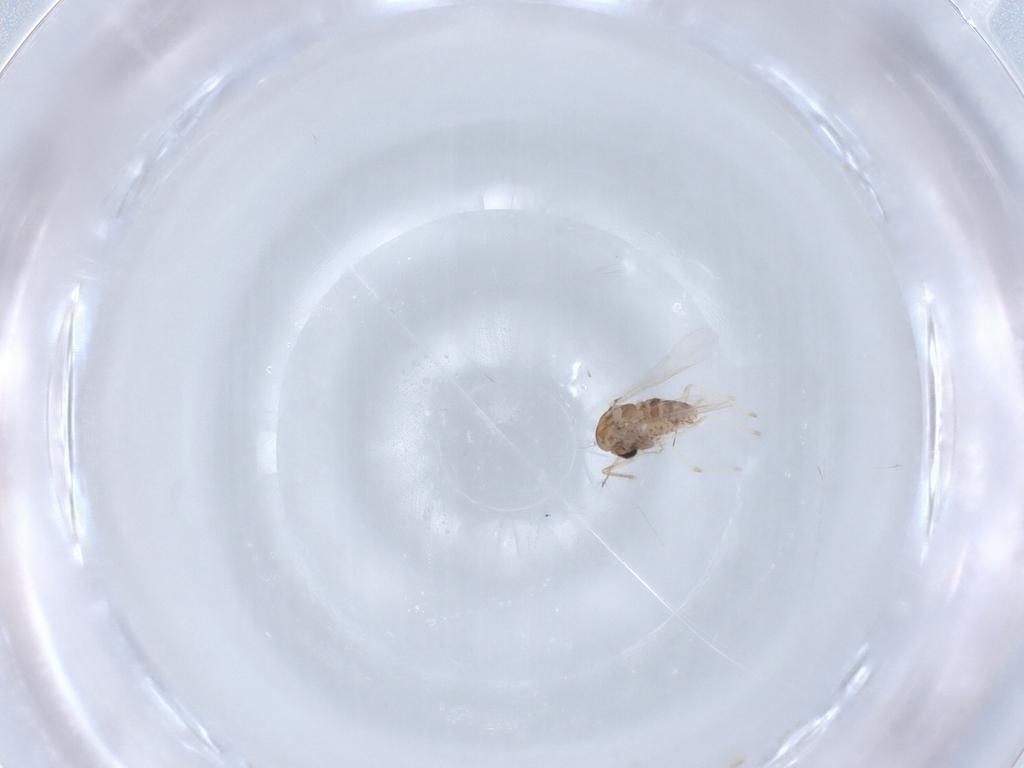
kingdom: Animalia
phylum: Arthropoda
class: Insecta
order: Diptera
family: Chironomidae
